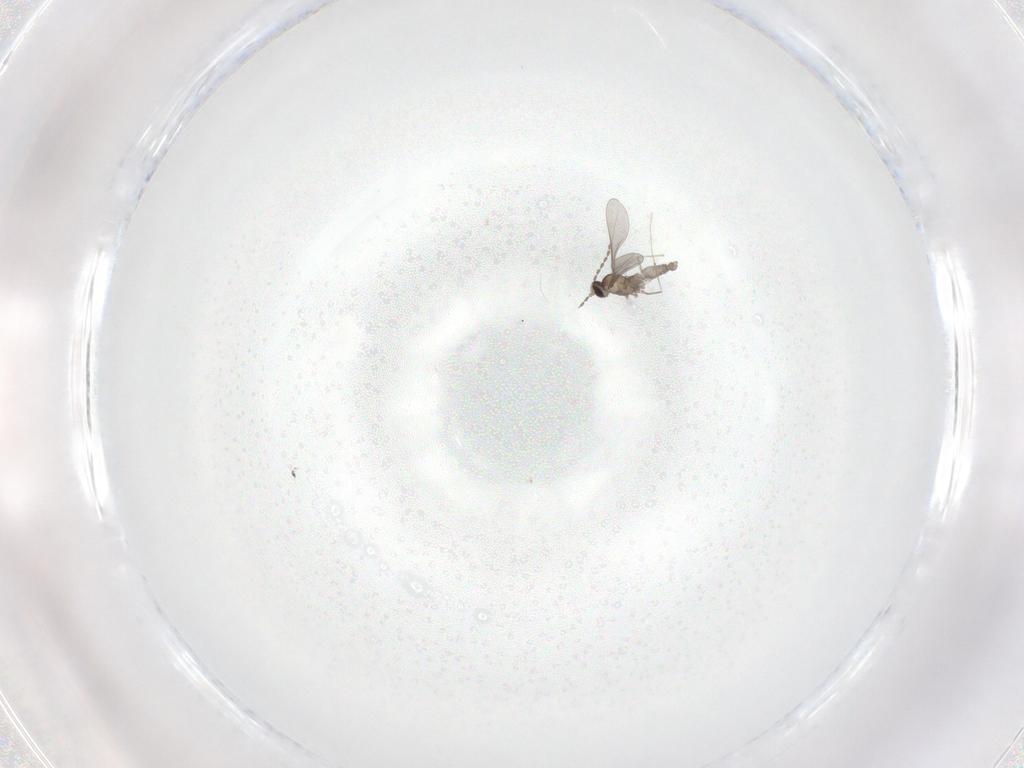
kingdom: Animalia
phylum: Arthropoda
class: Insecta
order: Diptera
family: Cecidomyiidae
